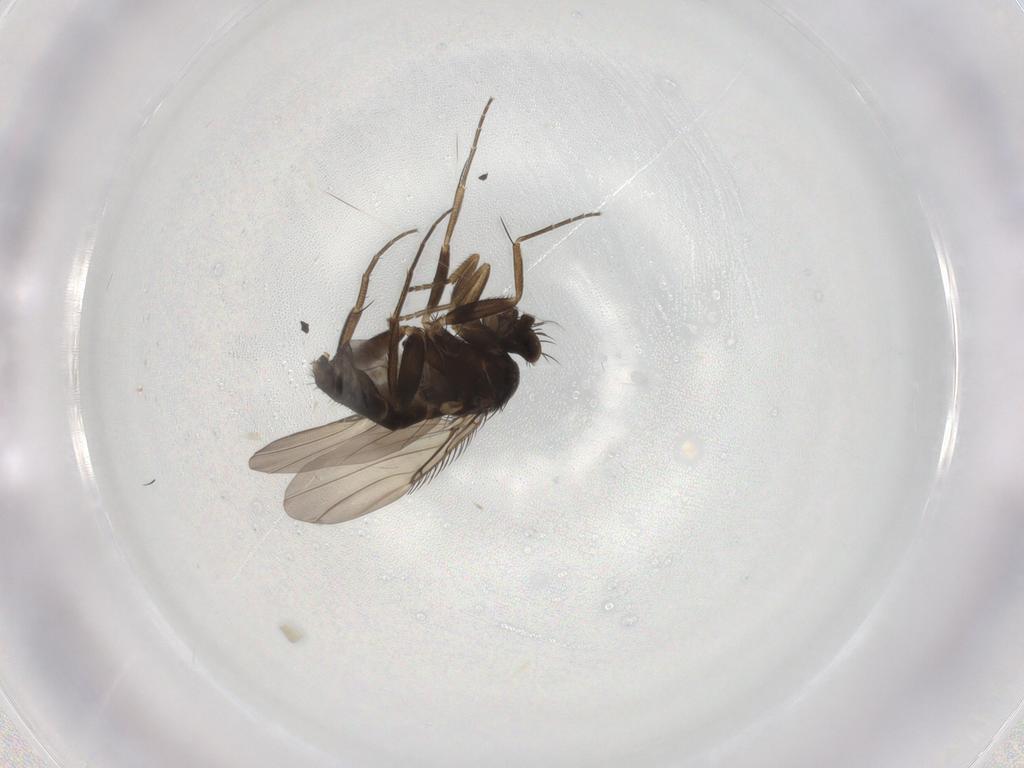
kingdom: Animalia
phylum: Arthropoda
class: Insecta
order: Diptera
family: Phoridae
